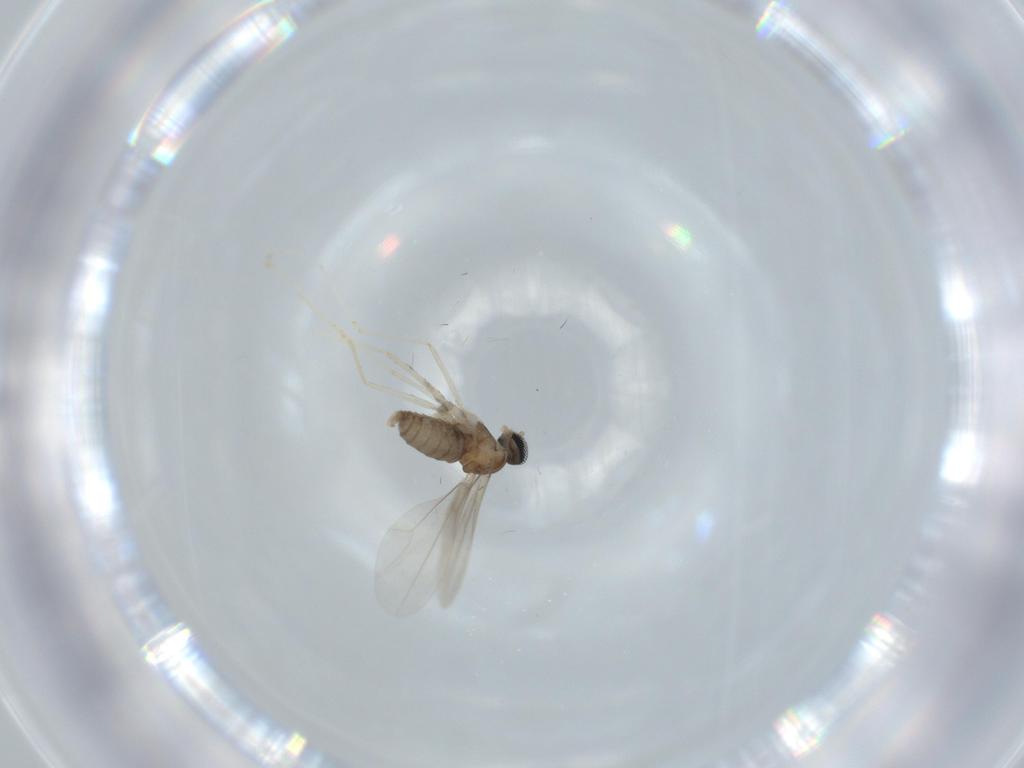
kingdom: Animalia
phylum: Arthropoda
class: Insecta
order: Diptera
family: Cecidomyiidae
